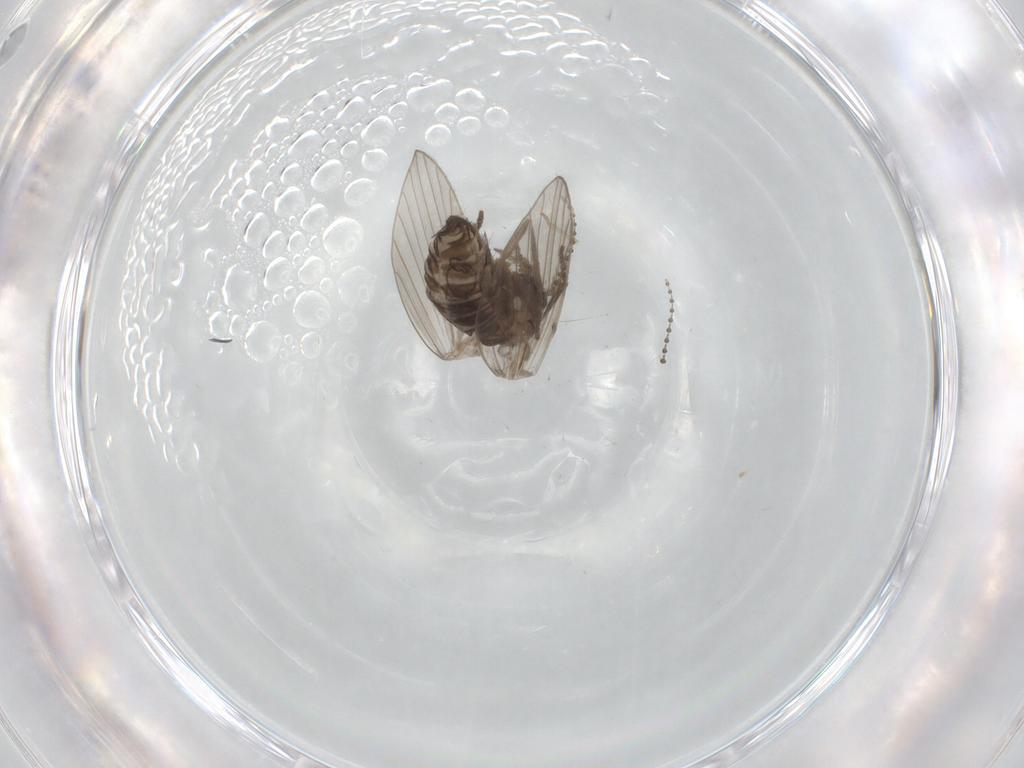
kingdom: Animalia
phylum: Arthropoda
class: Insecta
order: Diptera
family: Psychodidae
